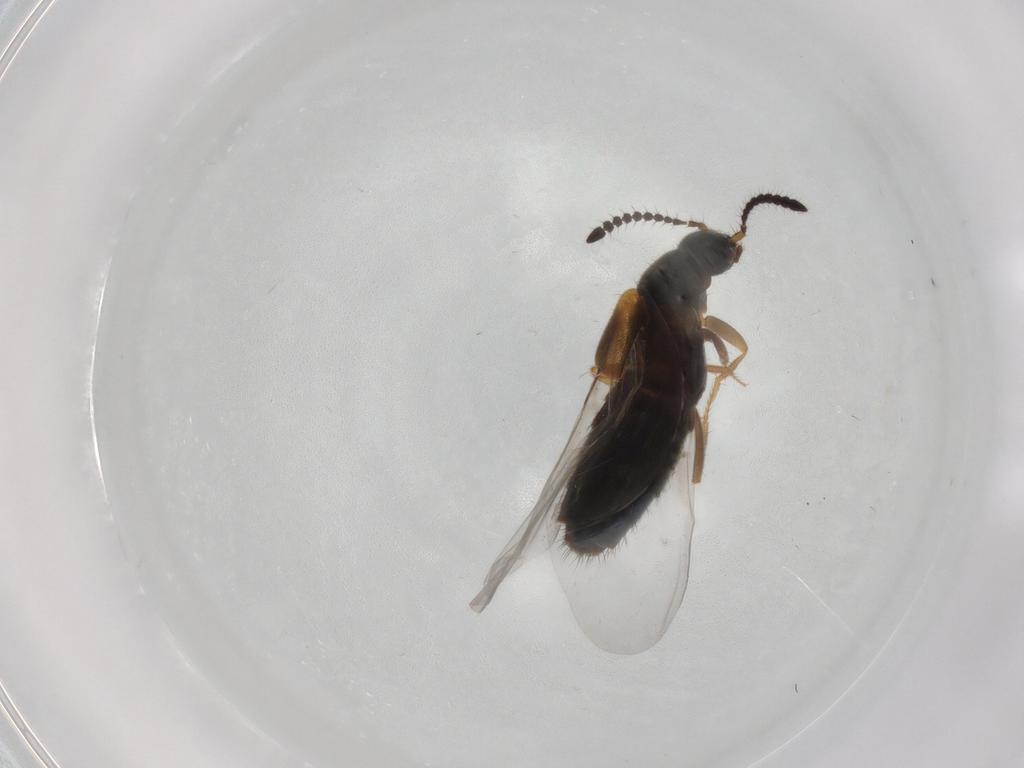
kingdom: Animalia
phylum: Arthropoda
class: Insecta
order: Coleoptera
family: Staphylinidae
